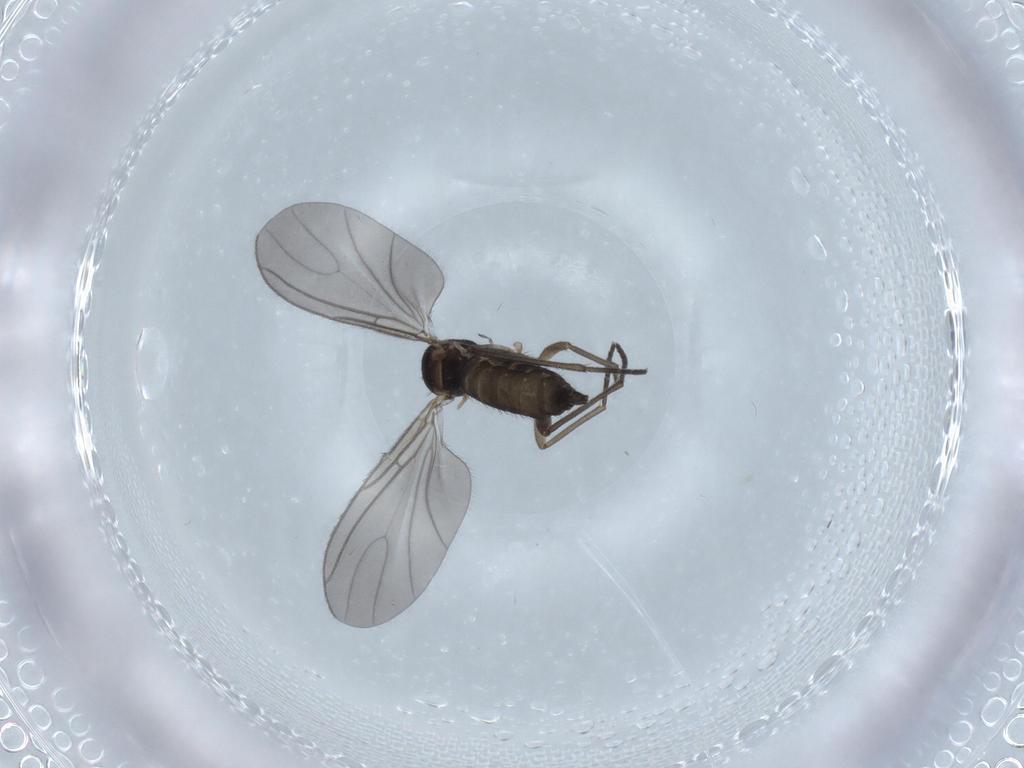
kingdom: Animalia
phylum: Arthropoda
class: Insecta
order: Diptera
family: Sciaridae
